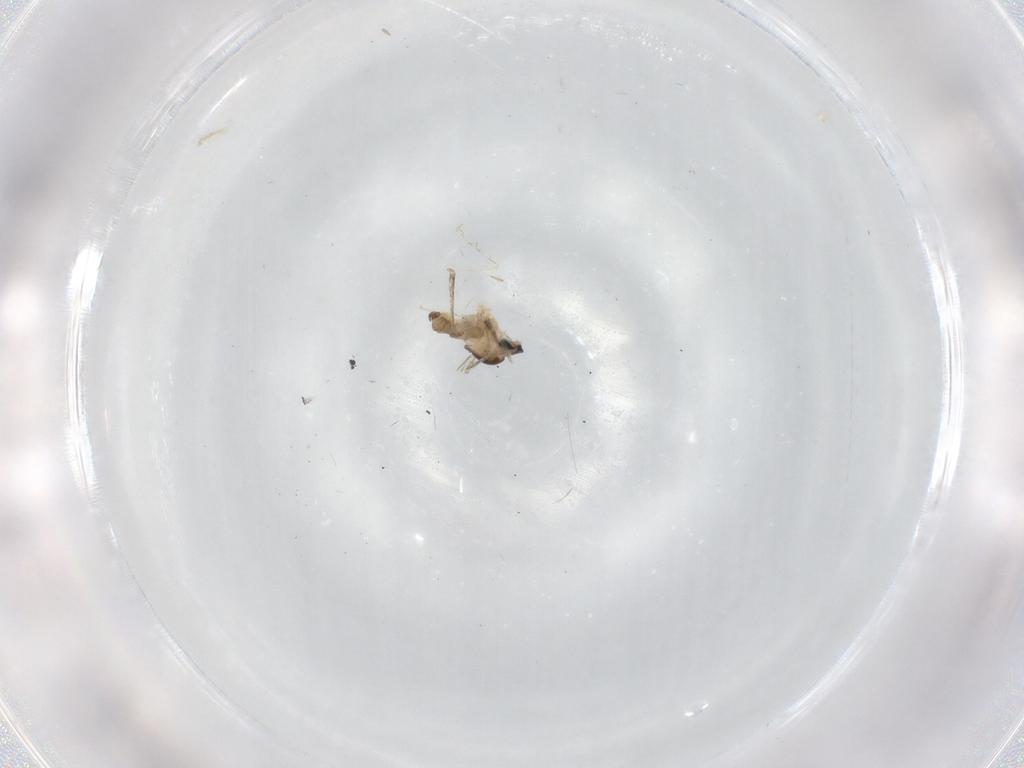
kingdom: Animalia
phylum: Arthropoda
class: Insecta
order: Diptera
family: Cecidomyiidae
